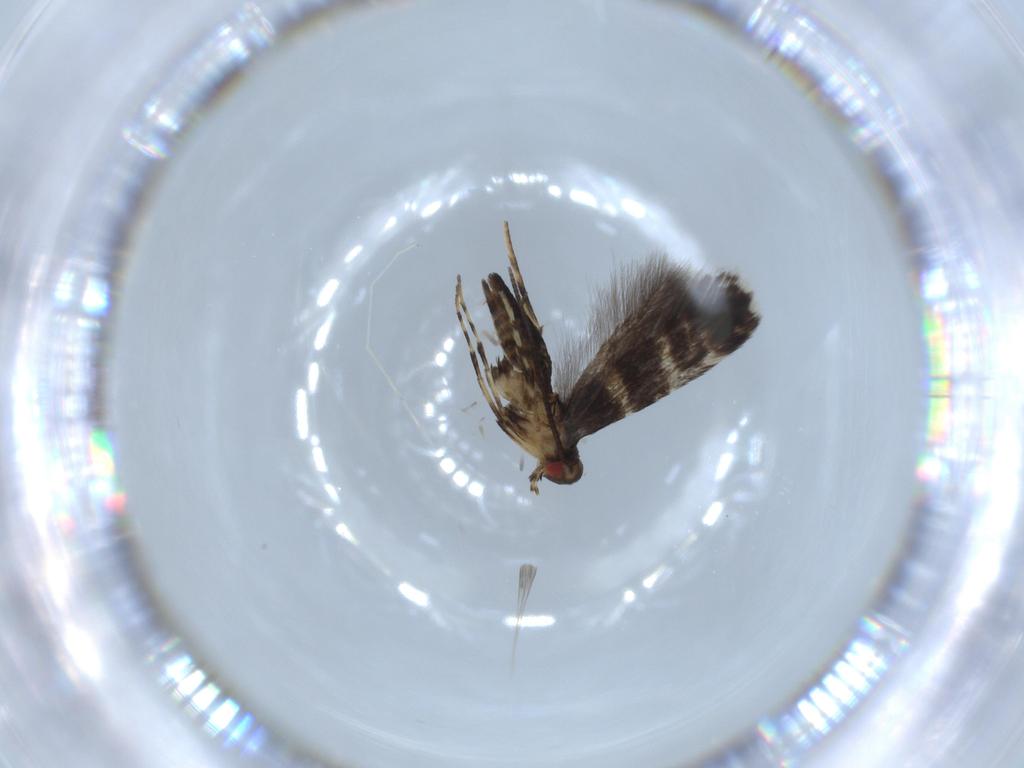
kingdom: Animalia
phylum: Arthropoda
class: Insecta
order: Lepidoptera
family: Gracillariidae
